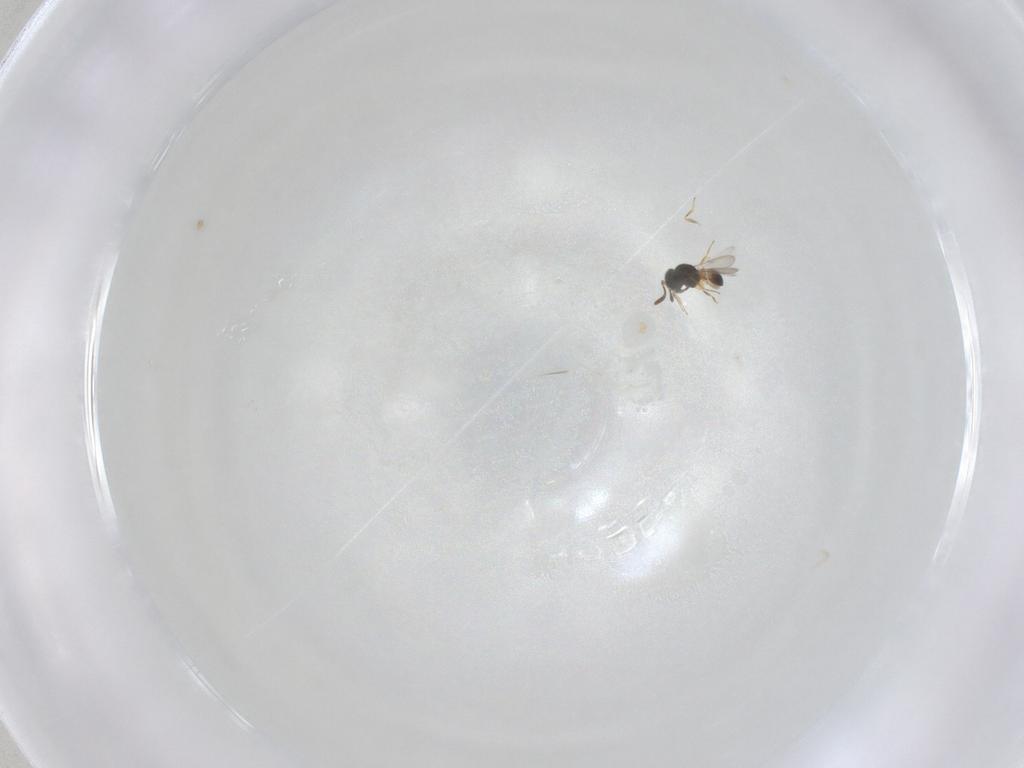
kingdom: Animalia
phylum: Arthropoda
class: Insecta
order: Hymenoptera
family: Scelionidae
